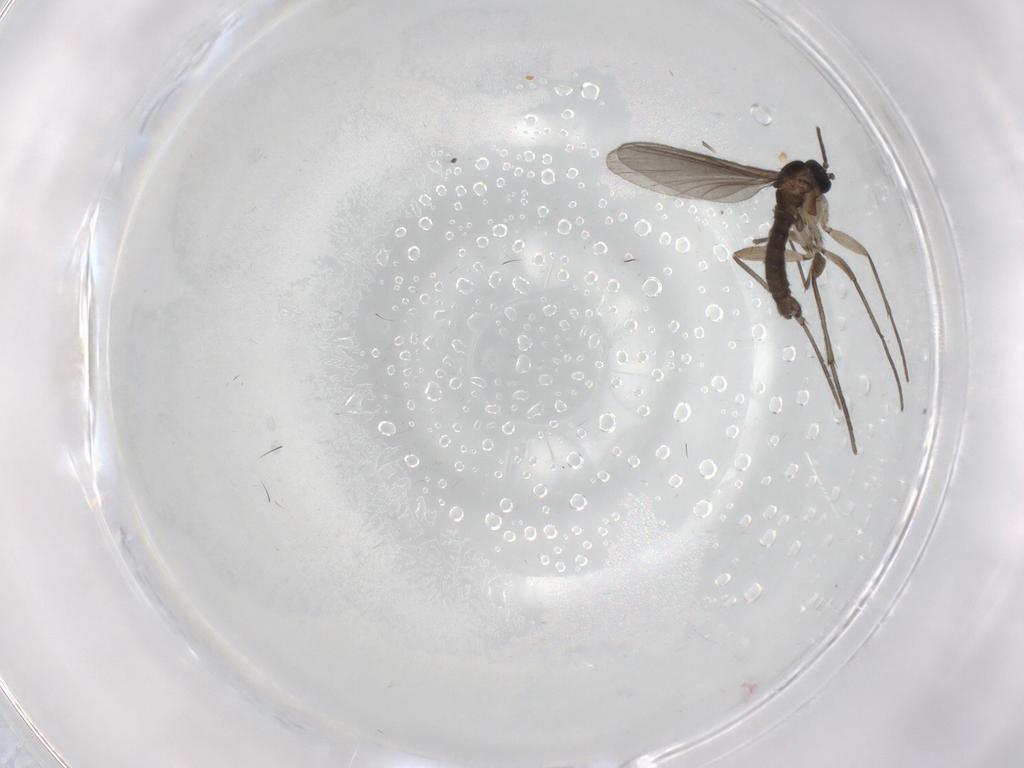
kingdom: Animalia
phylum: Arthropoda
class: Insecta
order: Diptera
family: Sciaridae
